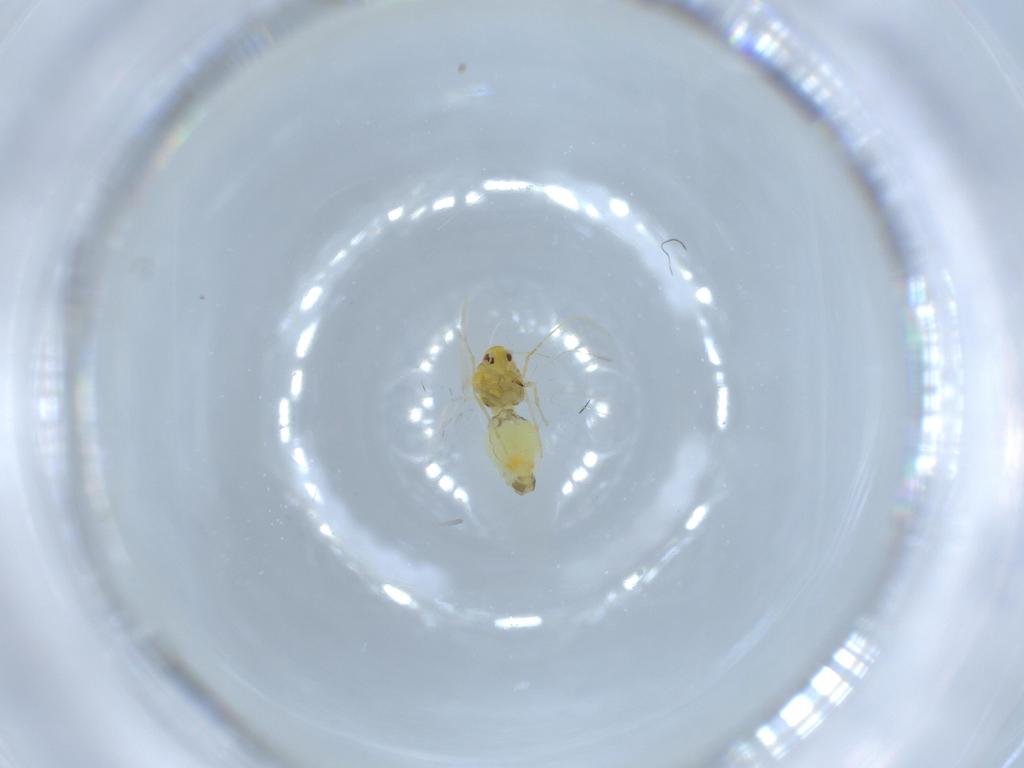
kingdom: Animalia
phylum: Arthropoda
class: Insecta
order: Hemiptera
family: Aleyrodidae
